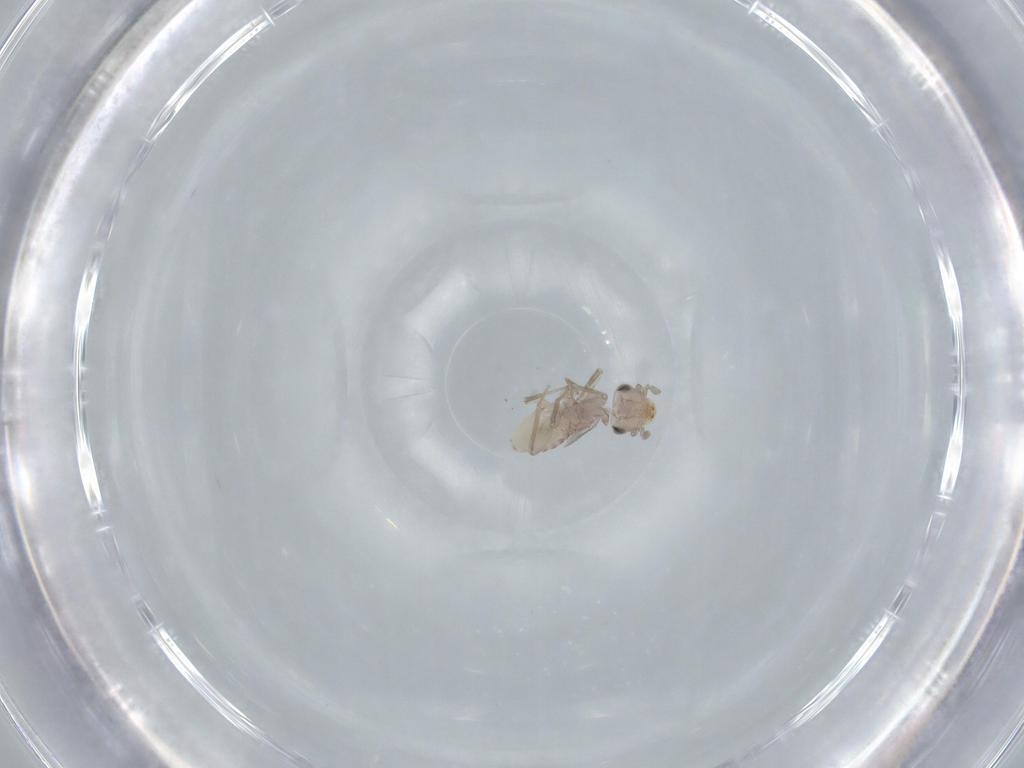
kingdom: Animalia
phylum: Arthropoda
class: Insecta
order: Psocodea
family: Psoquillidae
